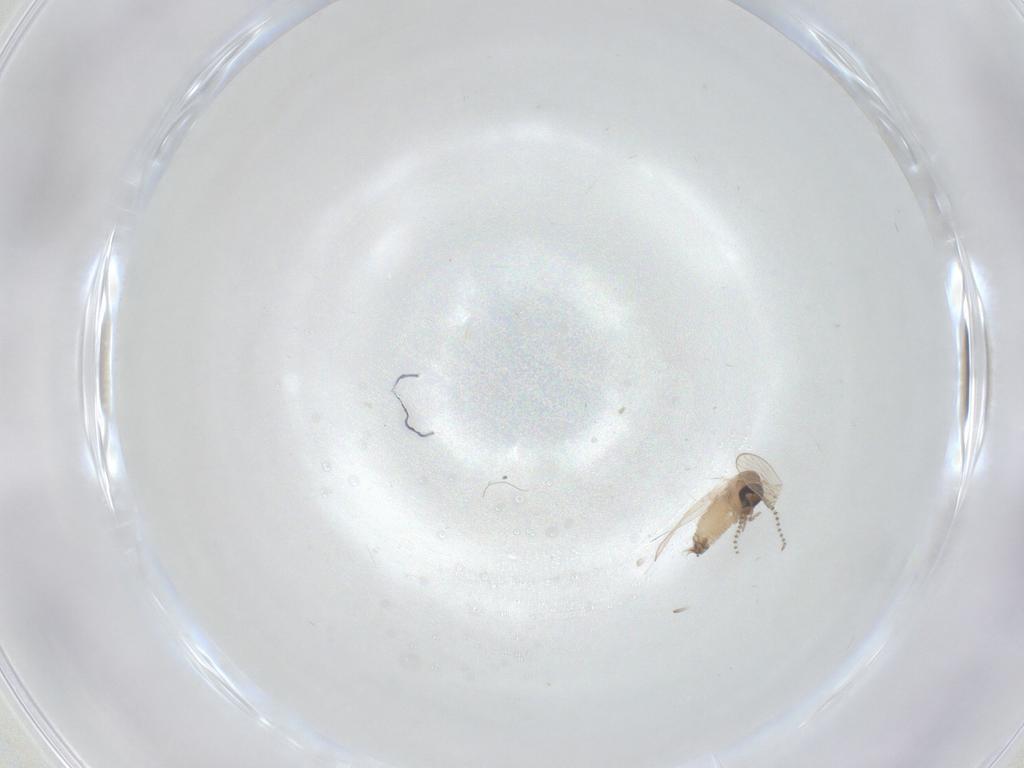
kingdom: Animalia
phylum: Arthropoda
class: Insecta
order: Diptera
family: Psychodidae
